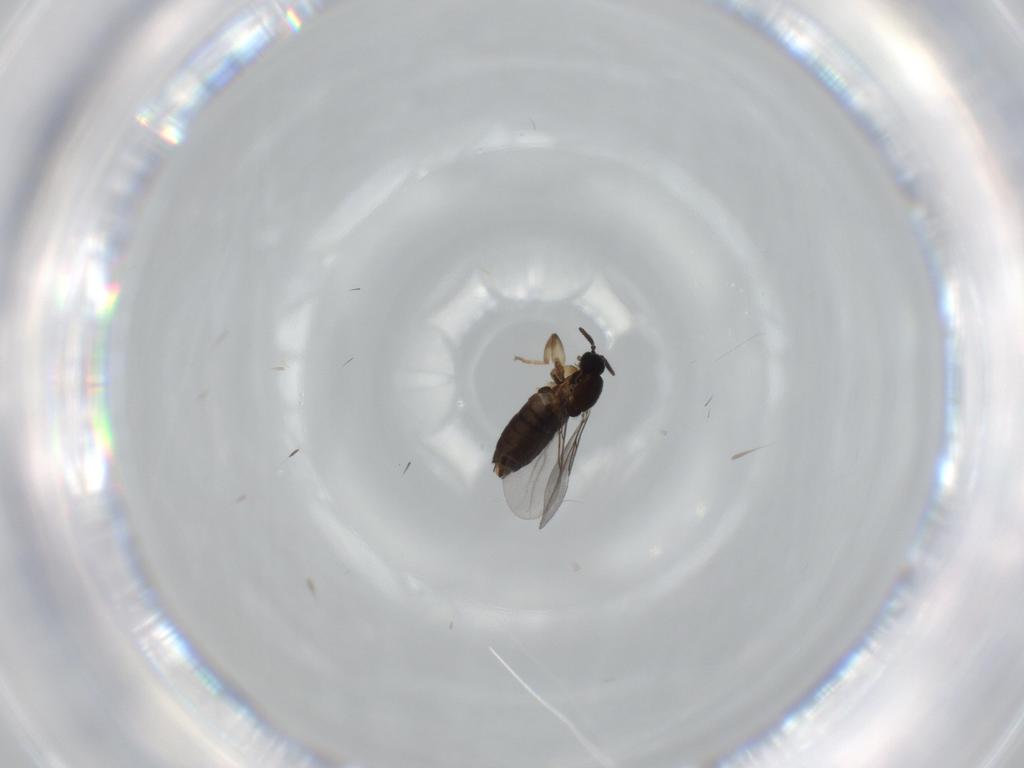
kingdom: Animalia
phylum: Arthropoda
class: Insecta
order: Diptera
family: Scatopsidae
